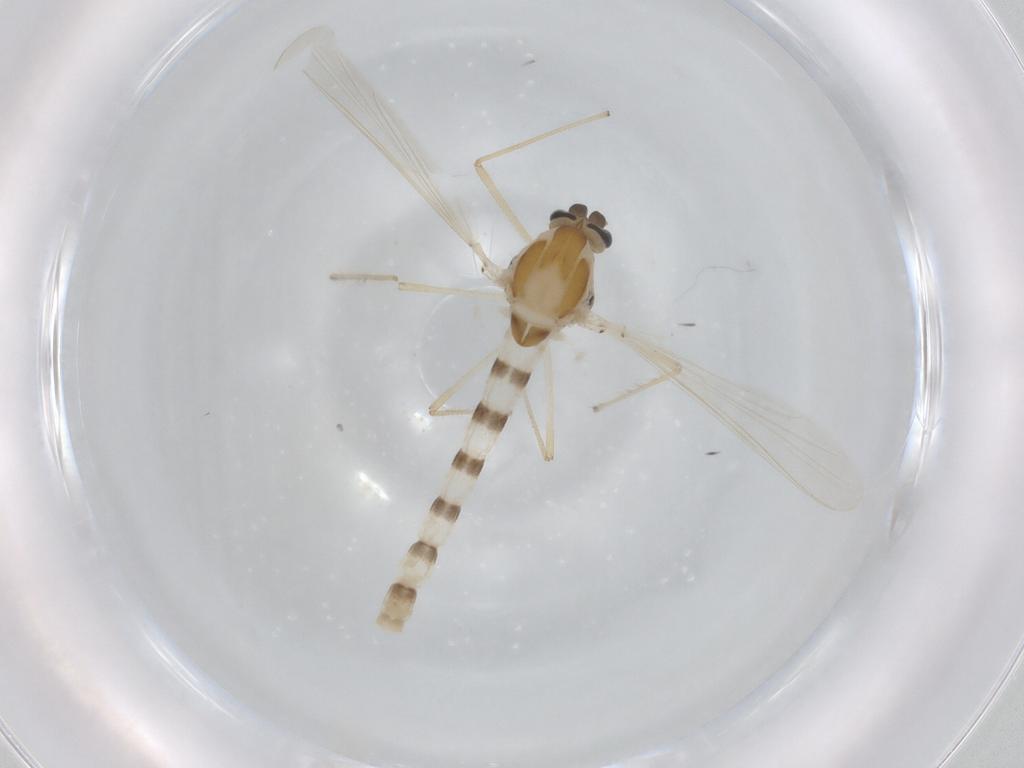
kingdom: Animalia
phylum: Arthropoda
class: Insecta
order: Diptera
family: Chironomidae
